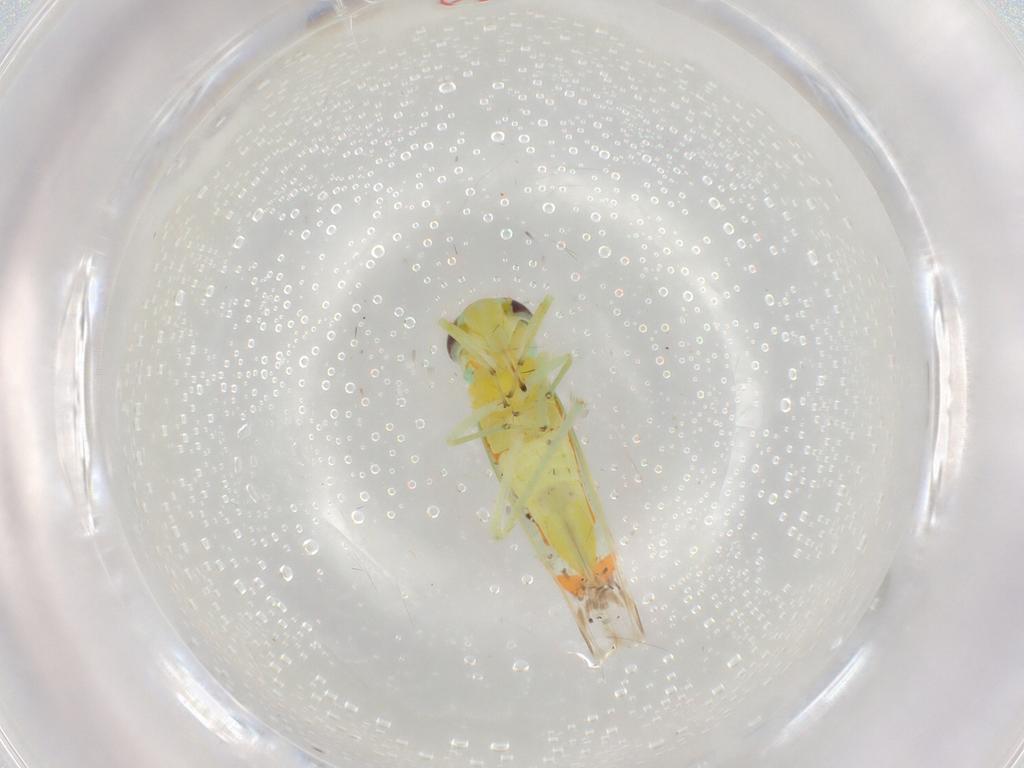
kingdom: Animalia
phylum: Arthropoda
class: Insecta
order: Hemiptera
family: Cicadellidae
